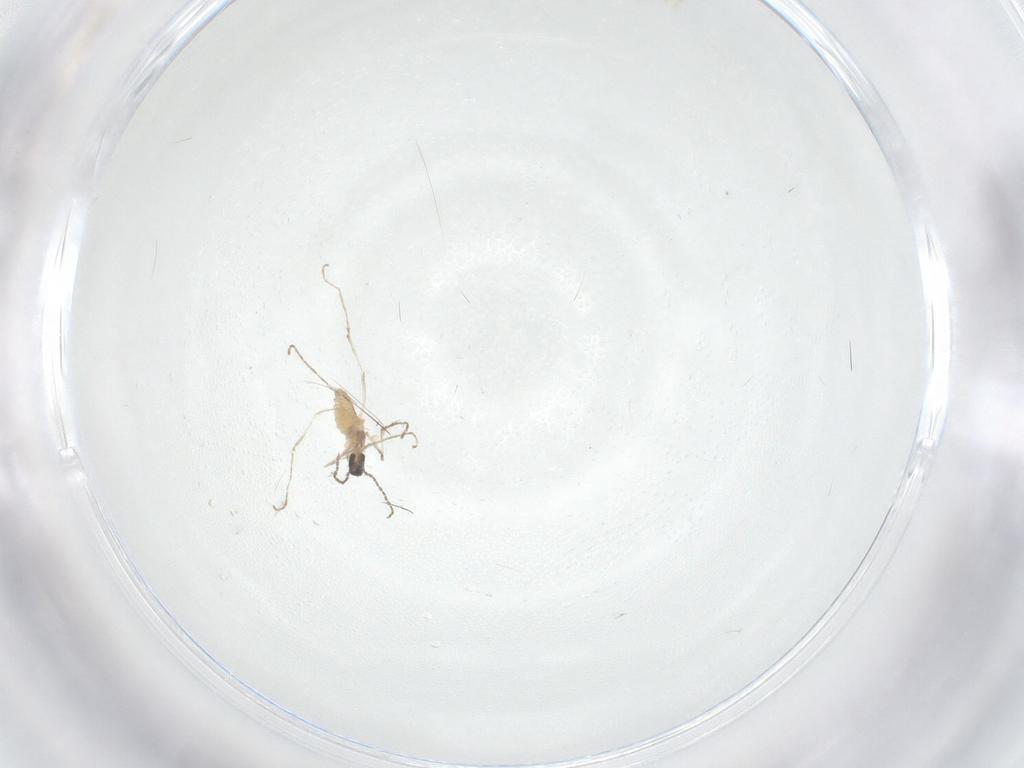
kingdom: Animalia
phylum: Arthropoda
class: Insecta
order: Diptera
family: Cecidomyiidae
